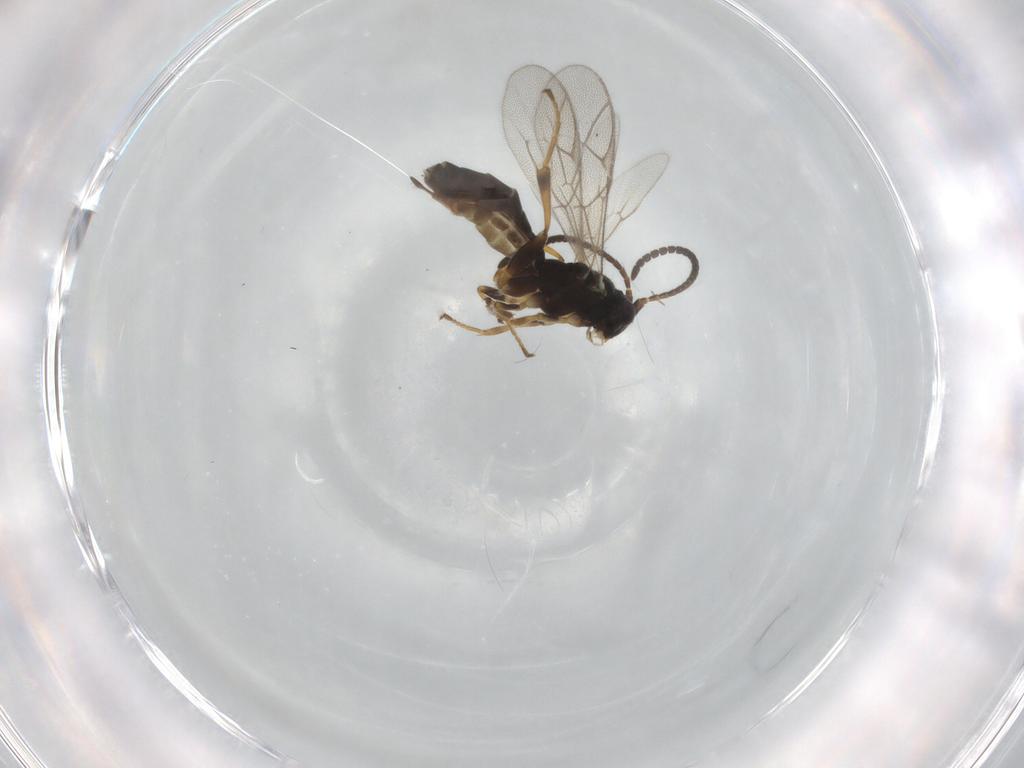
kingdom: Animalia
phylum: Arthropoda
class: Insecta
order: Hymenoptera
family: Ichneumonidae
